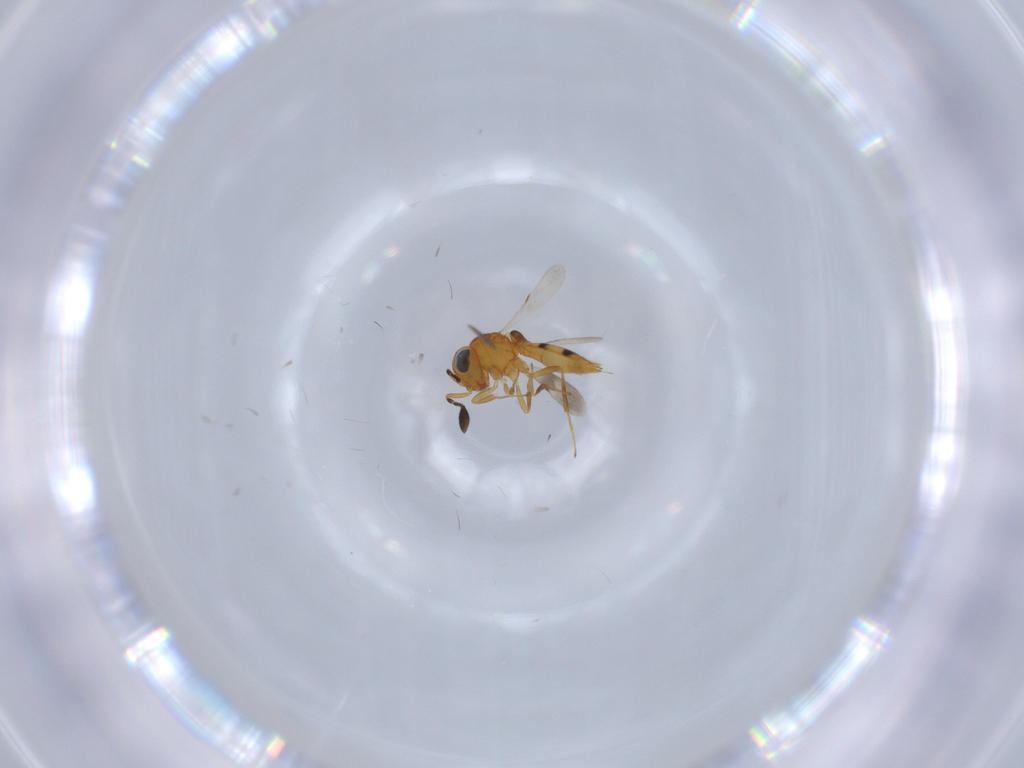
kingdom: Animalia
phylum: Arthropoda
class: Insecta
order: Hymenoptera
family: Scelionidae
